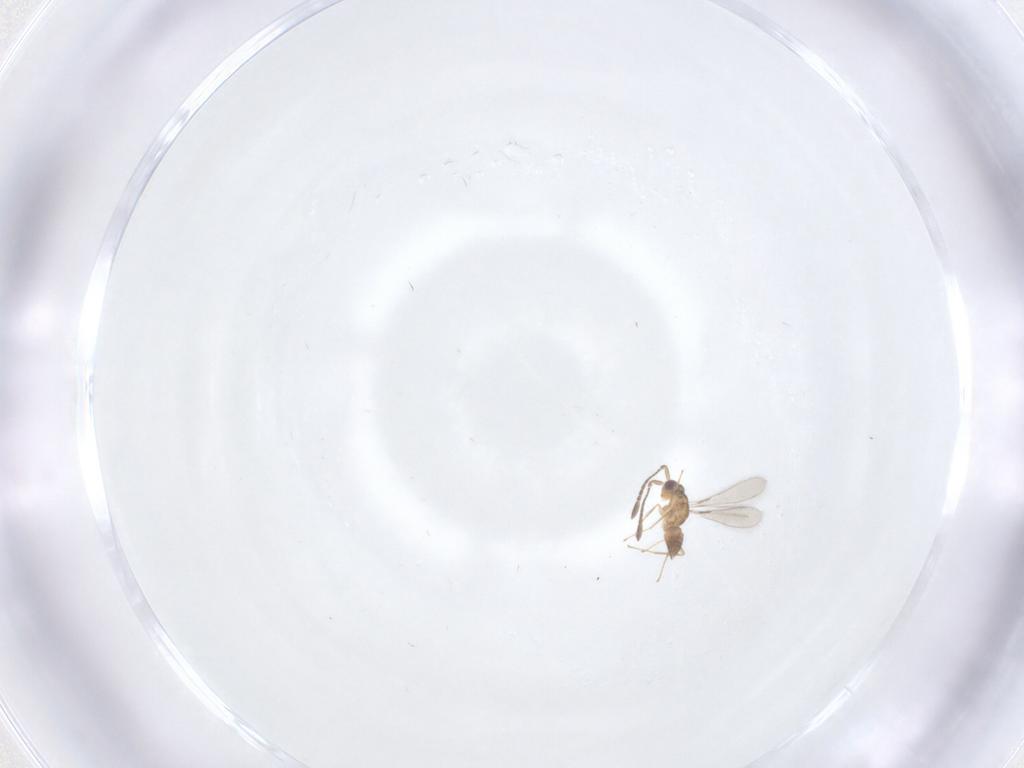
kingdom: Animalia
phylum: Arthropoda
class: Insecta
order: Hymenoptera
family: Mymaridae
